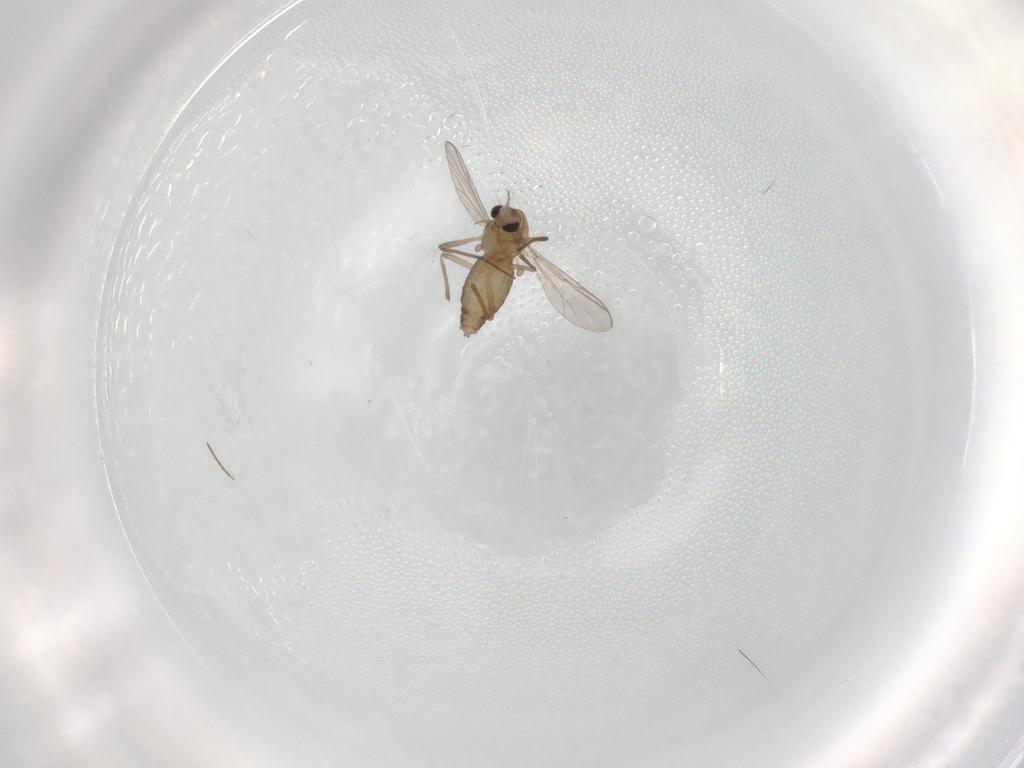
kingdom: Animalia
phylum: Arthropoda
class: Insecta
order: Diptera
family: Chironomidae
